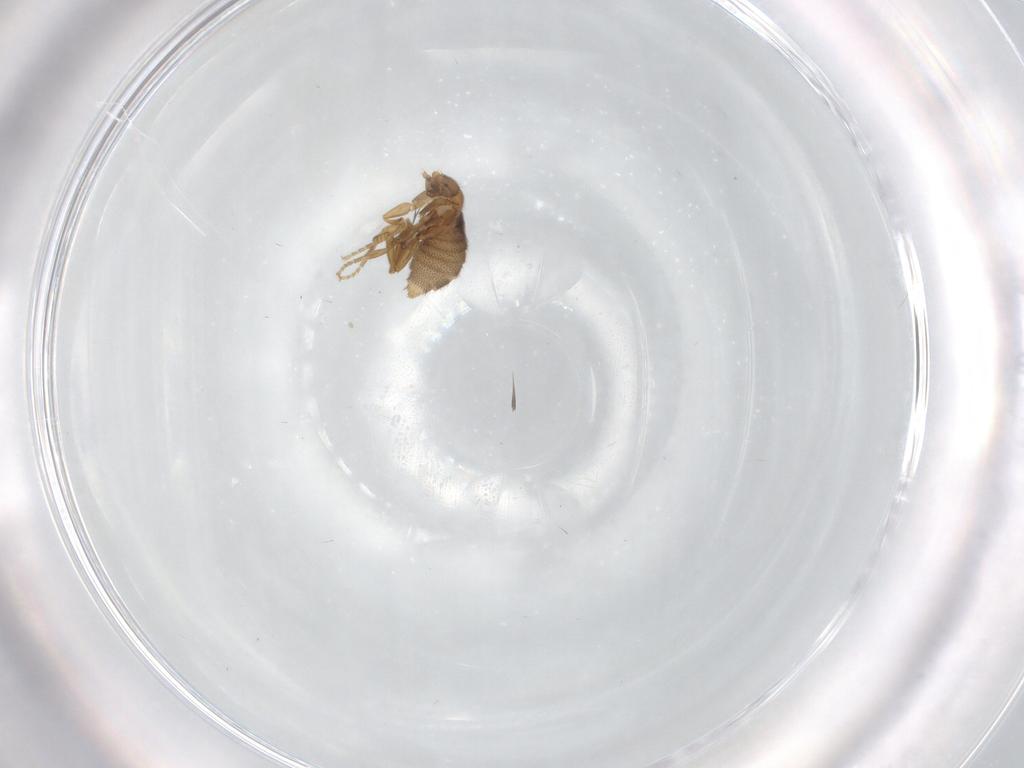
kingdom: Animalia
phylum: Arthropoda
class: Insecta
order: Diptera
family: Phoridae
